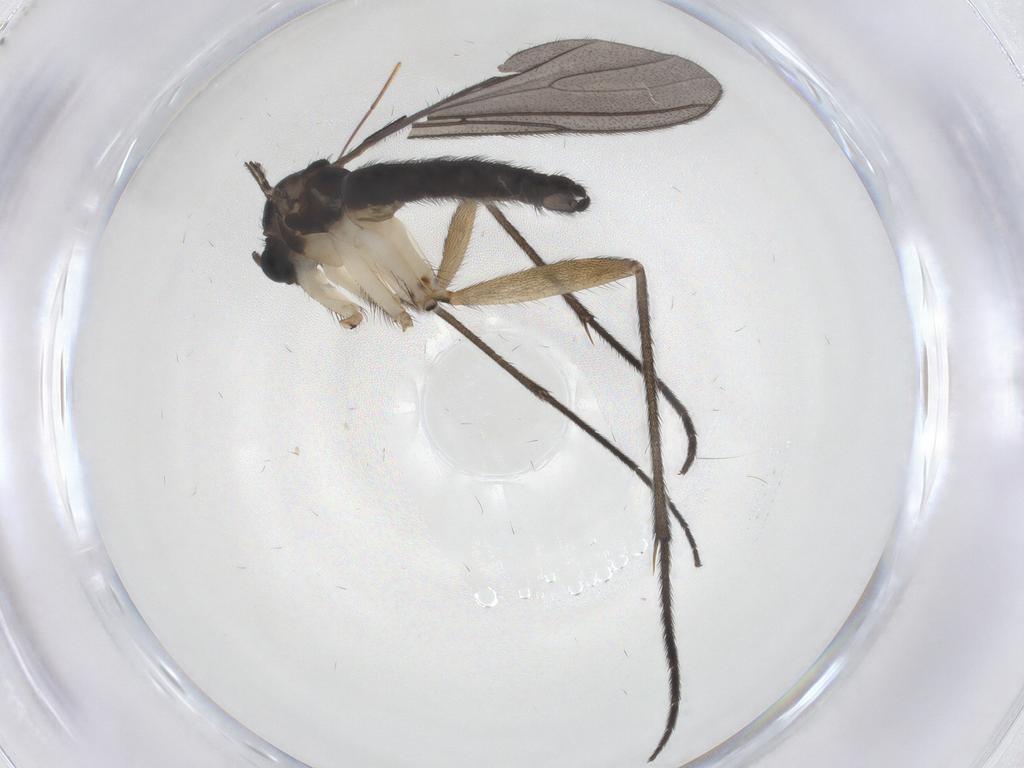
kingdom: Animalia
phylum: Arthropoda
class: Insecta
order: Diptera
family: Sciaridae
